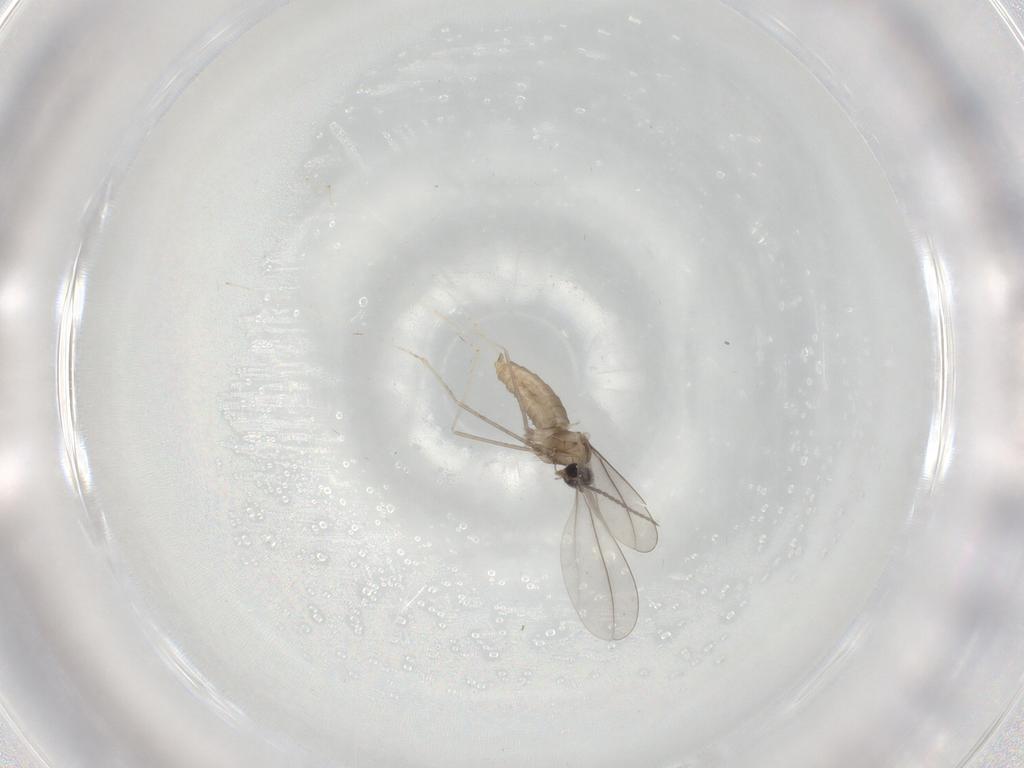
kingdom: Animalia
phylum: Arthropoda
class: Insecta
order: Diptera
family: Cecidomyiidae
